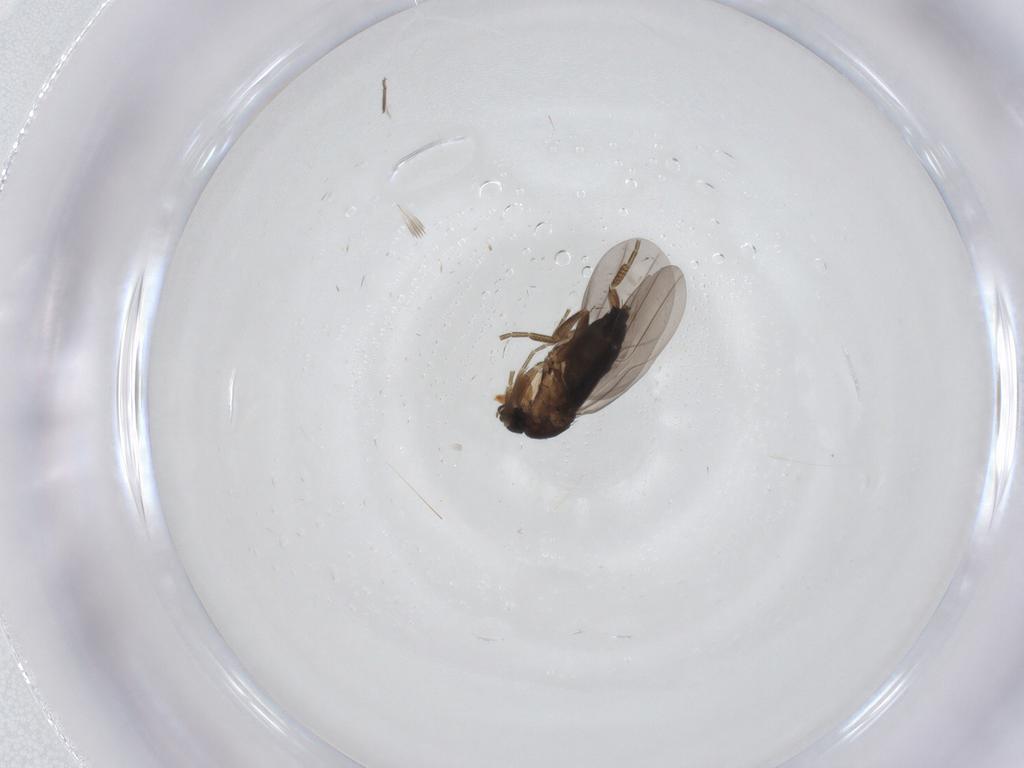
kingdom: Animalia
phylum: Arthropoda
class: Insecta
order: Diptera
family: Phoridae
